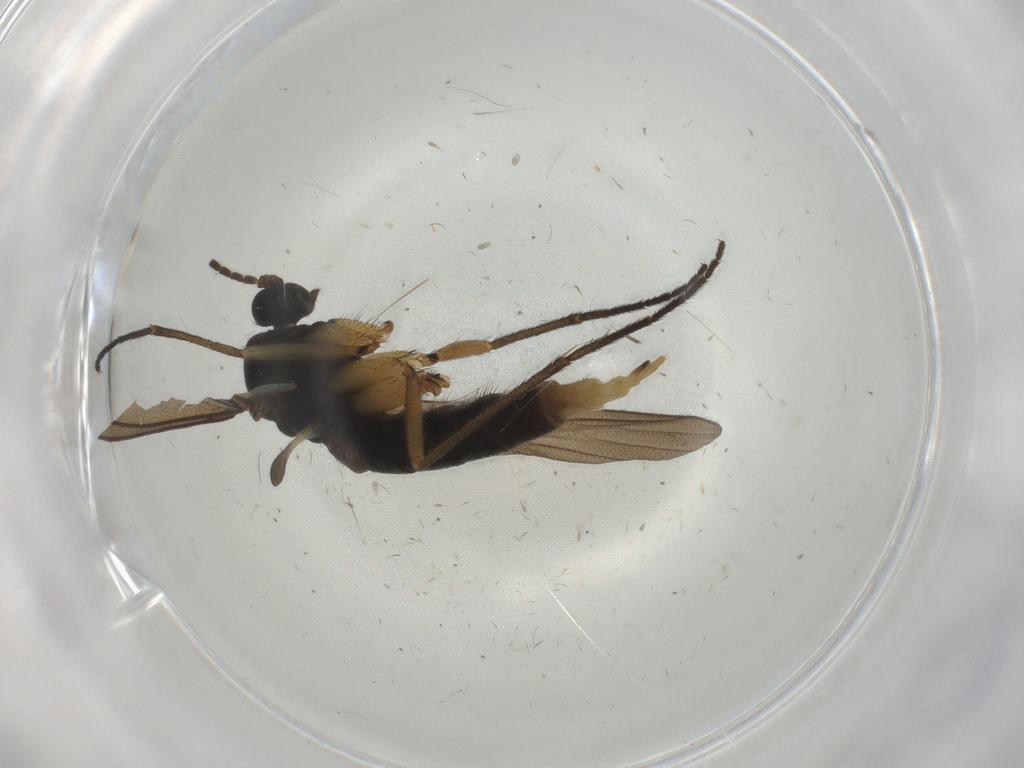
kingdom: Animalia
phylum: Arthropoda
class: Insecta
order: Diptera
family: Sciaridae
